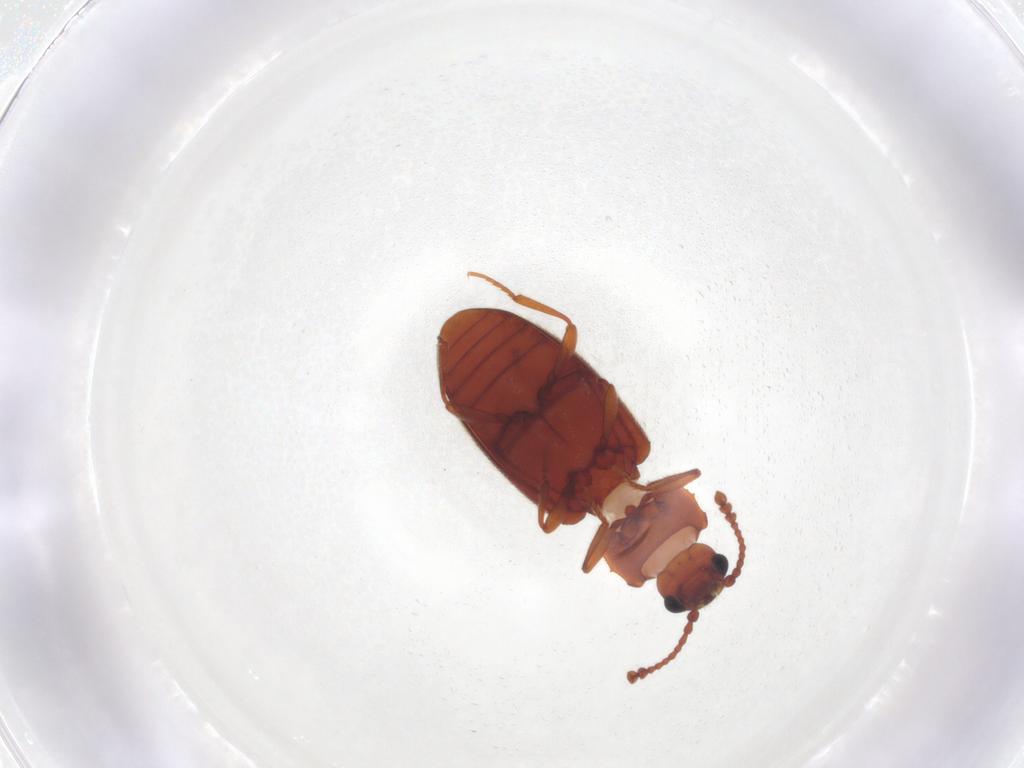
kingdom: Animalia
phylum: Arthropoda
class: Insecta
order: Coleoptera
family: Cryptophagidae
